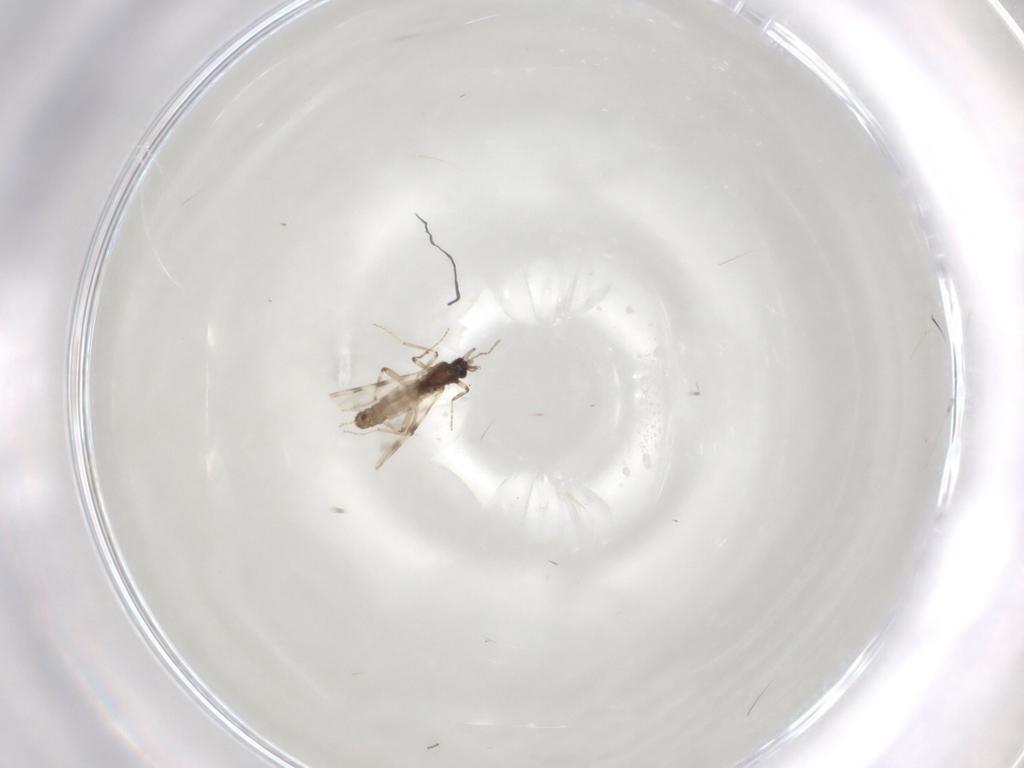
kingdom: Animalia
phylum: Arthropoda
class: Insecta
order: Diptera
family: Ceratopogonidae
